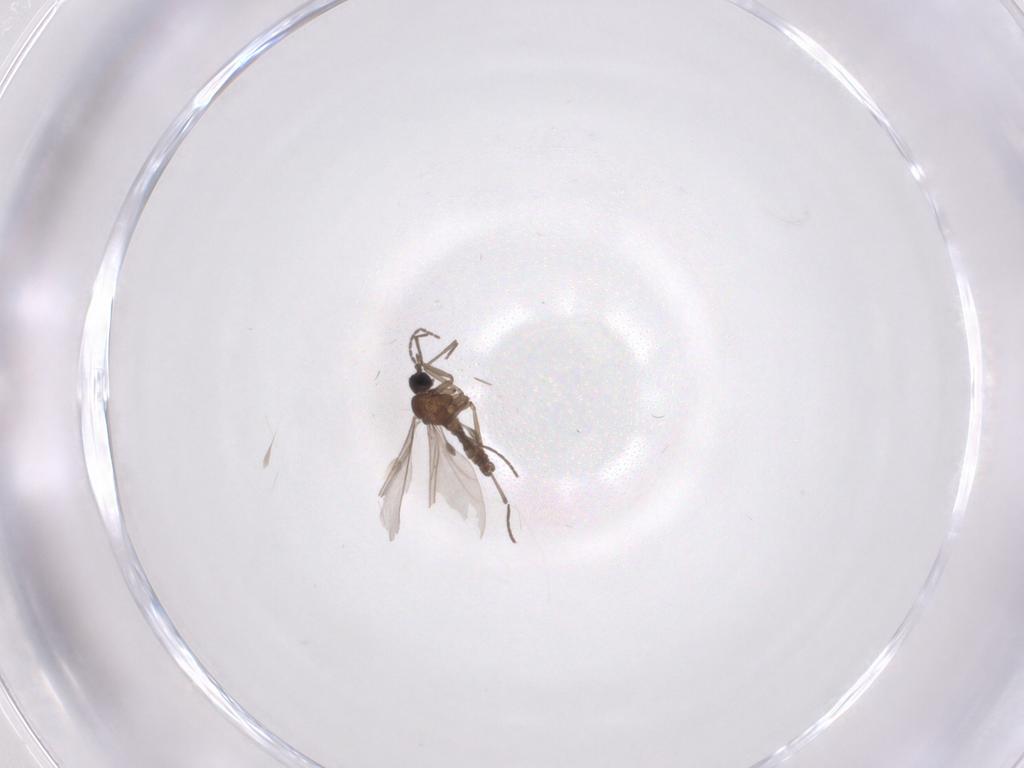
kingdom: Animalia
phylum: Arthropoda
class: Insecta
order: Diptera
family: Sciaridae
